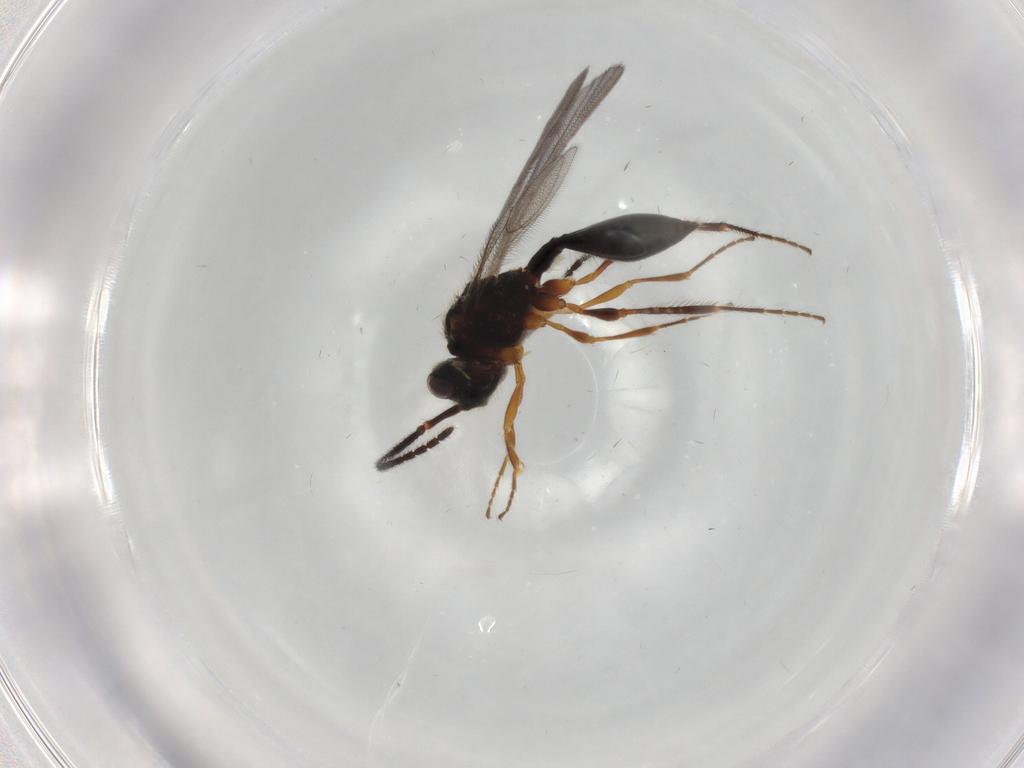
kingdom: Animalia
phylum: Arthropoda
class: Insecta
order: Hymenoptera
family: Diapriidae
